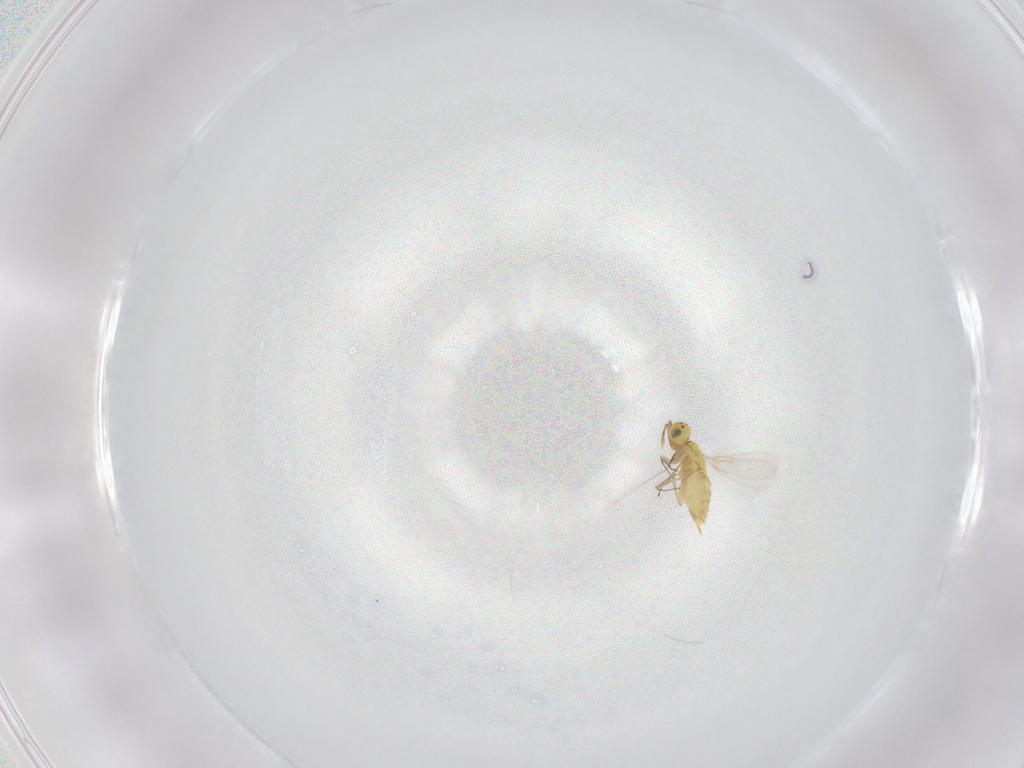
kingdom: Animalia
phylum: Arthropoda
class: Insecta
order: Hymenoptera
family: Aphelinidae
